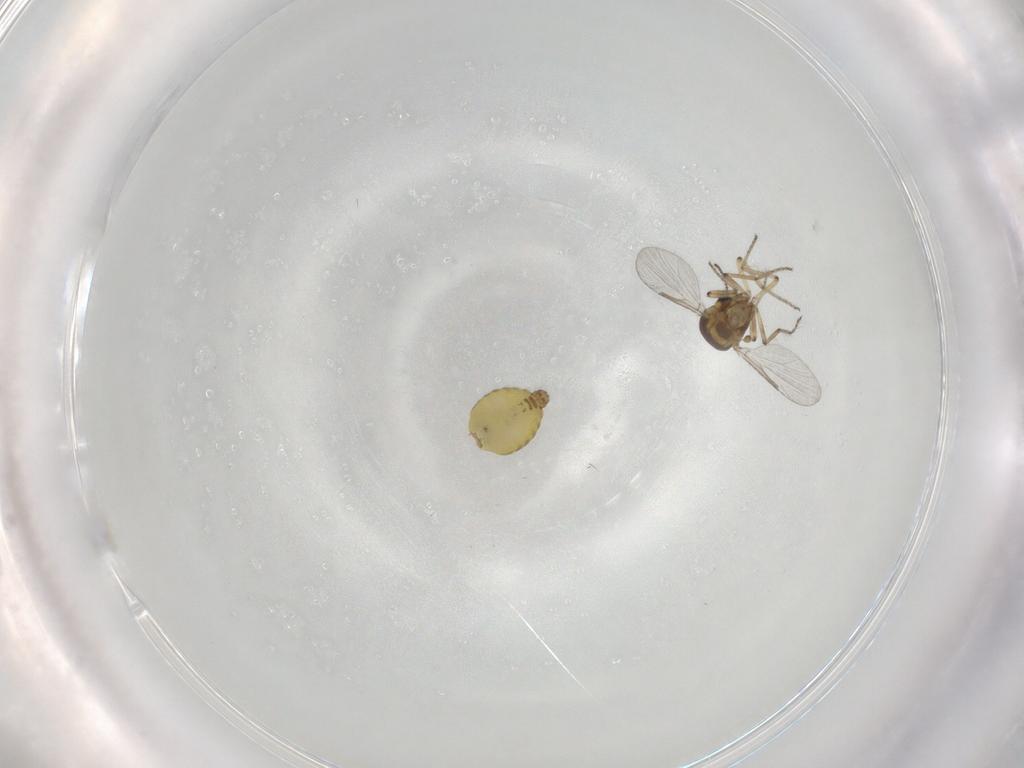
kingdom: Animalia
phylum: Arthropoda
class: Insecta
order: Diptera
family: Ceratopogonidae
